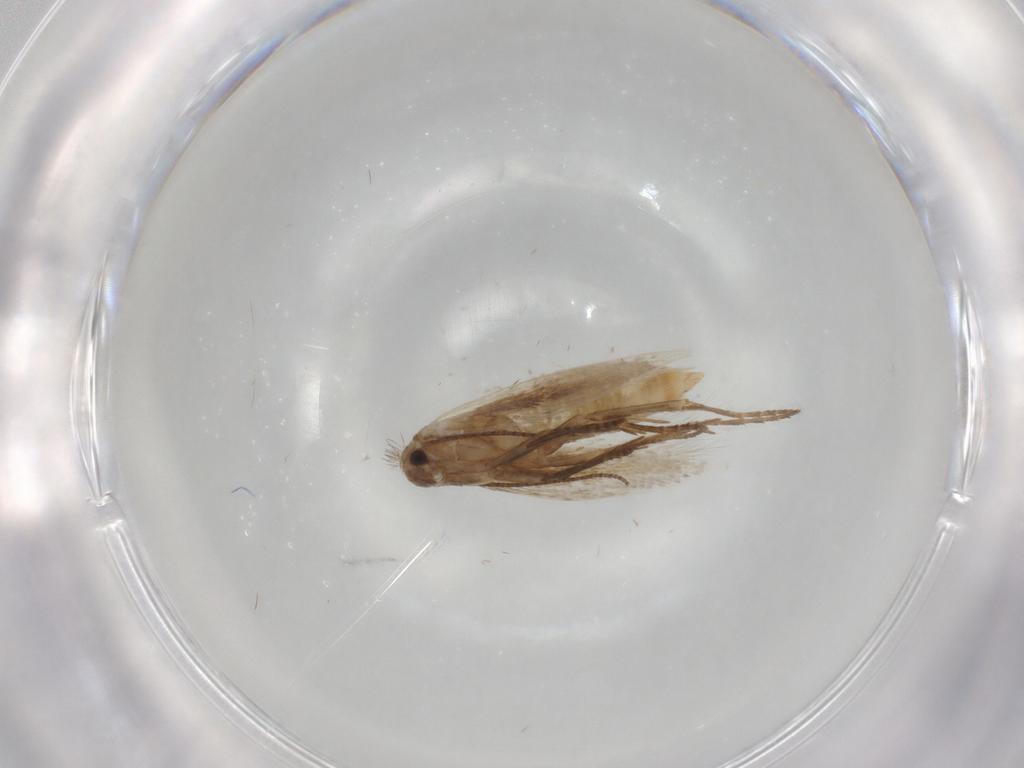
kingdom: Animalia
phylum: Arthropoda
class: Insecta
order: Lepidoptera
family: Bucculatricidae
